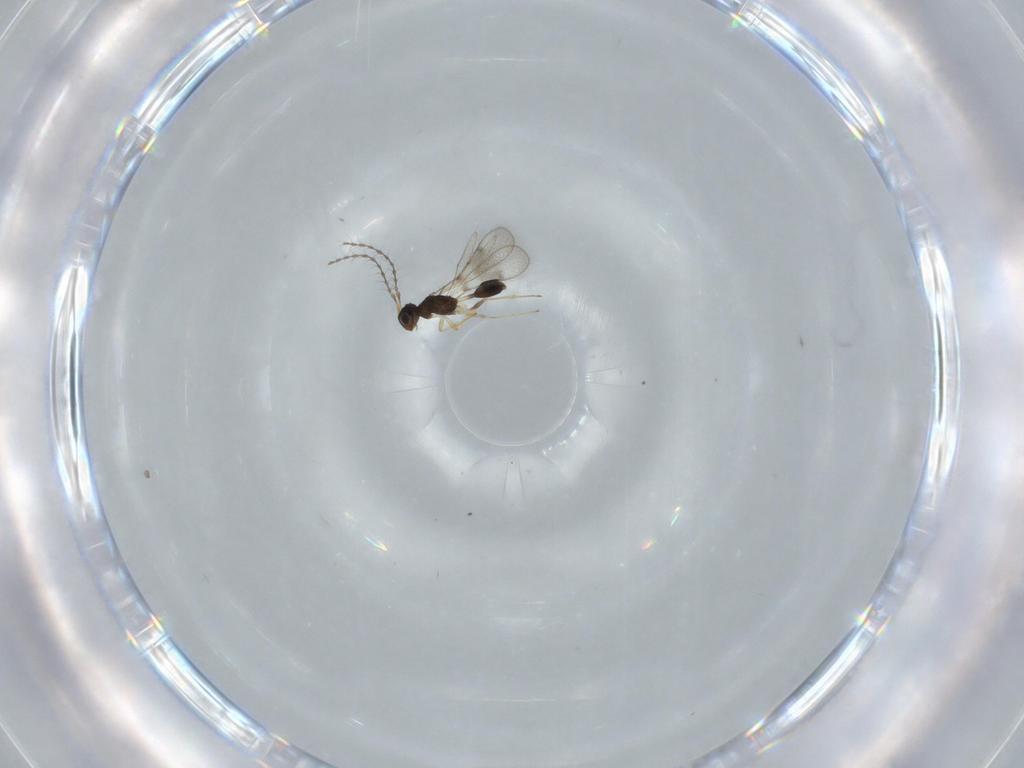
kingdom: Animalia
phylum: Arthropoda
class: Insecta
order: Hymenoptera
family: Diparidae
